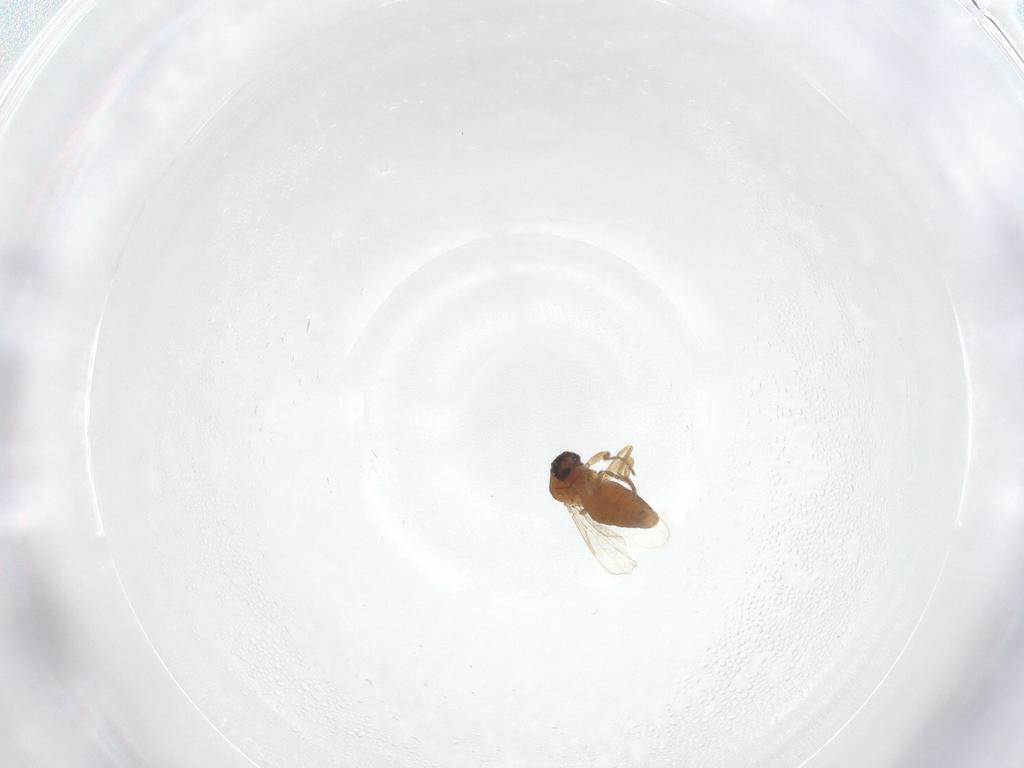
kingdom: Animalia
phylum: Arthropoda
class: Insecta
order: Diptera
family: Ceratopogonidae
